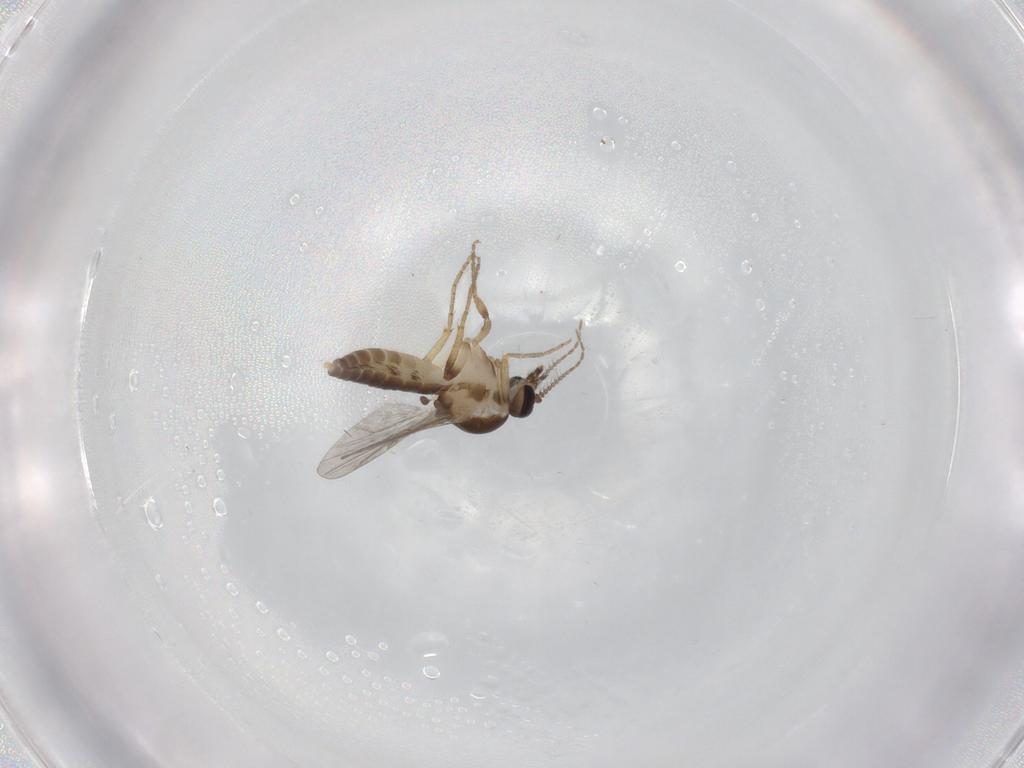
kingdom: Animalia
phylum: Arthropoda
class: Insecta
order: Diptera
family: Ceratopogonidae
